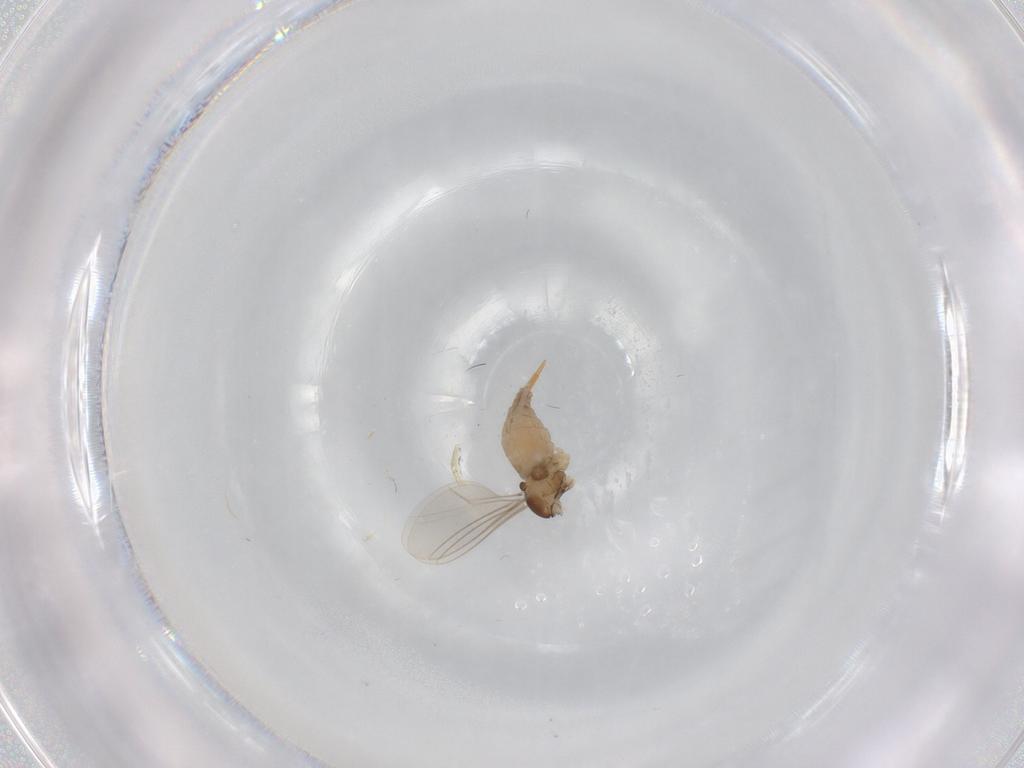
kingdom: Animalia
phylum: Arthropoda
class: Insecta
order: Diptera
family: Cecidomyiidae
